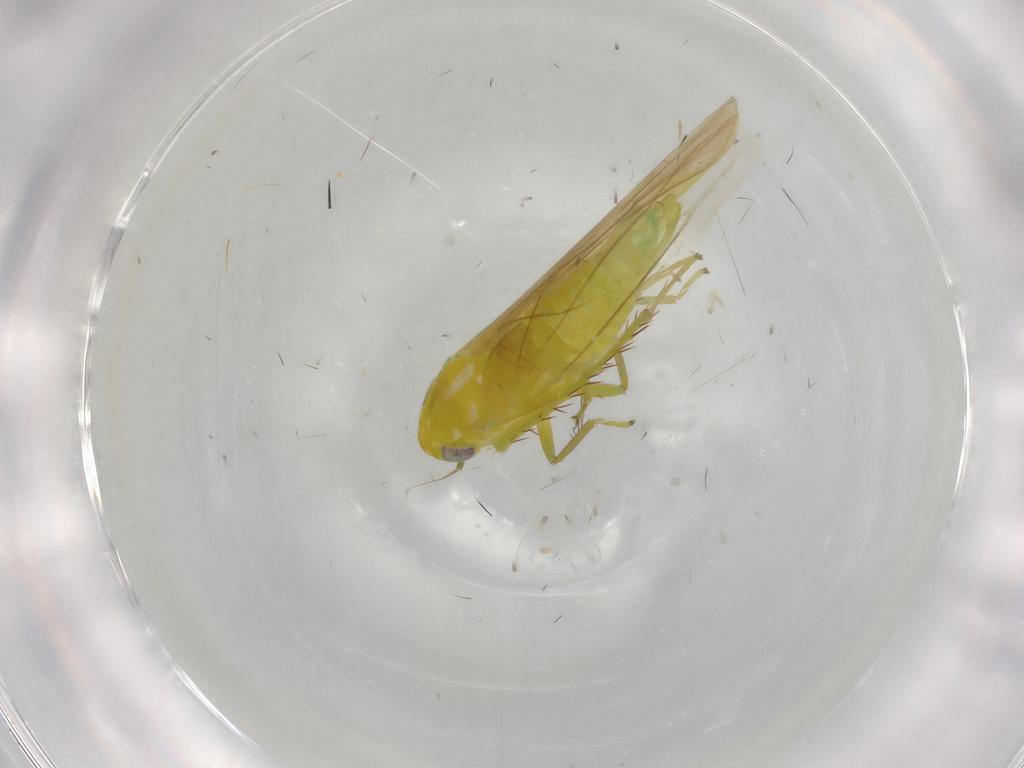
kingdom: Animalia
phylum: Arthropoda
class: Insecta
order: Hemiptera
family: Cicadellidae
